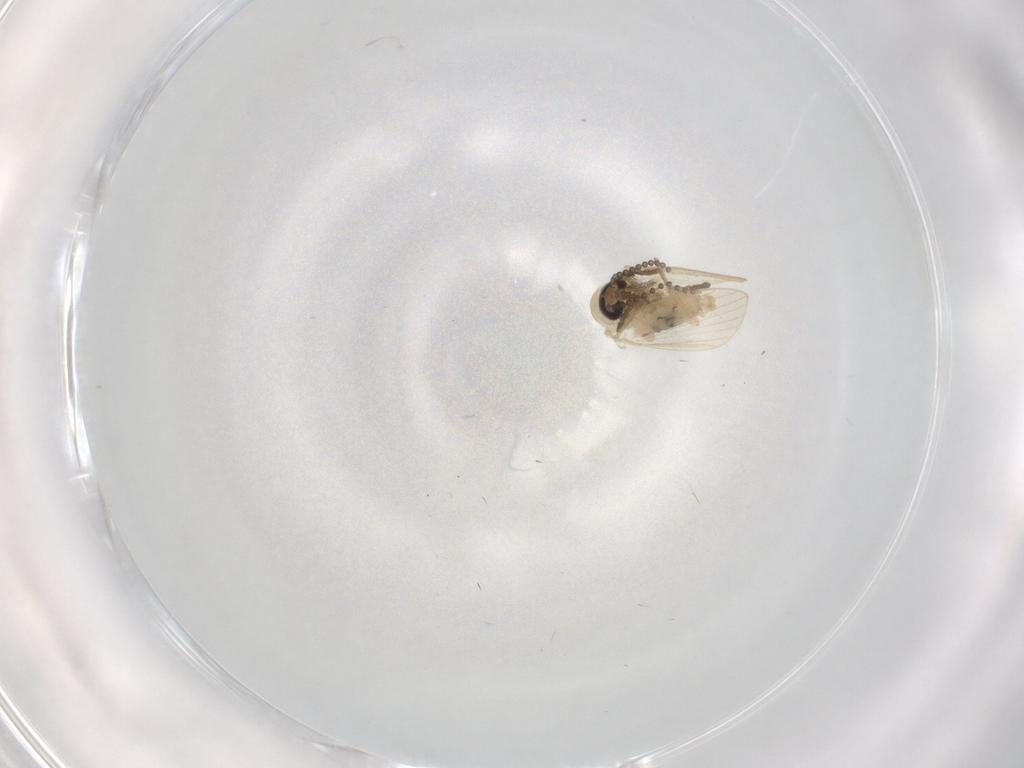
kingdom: Animalia
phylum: Arthropoda
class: Insecta
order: Diptera
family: Psychodidae
